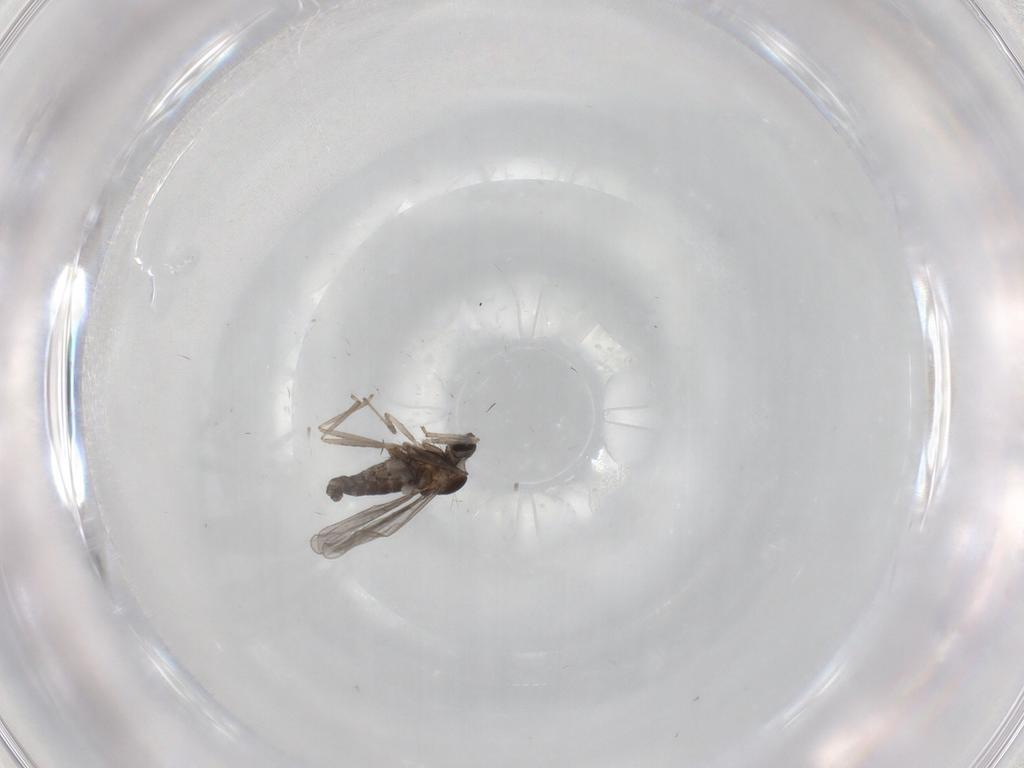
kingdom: Animalia
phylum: Arthropoda
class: Insecta
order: Diptera
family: Cecidomyiidae
